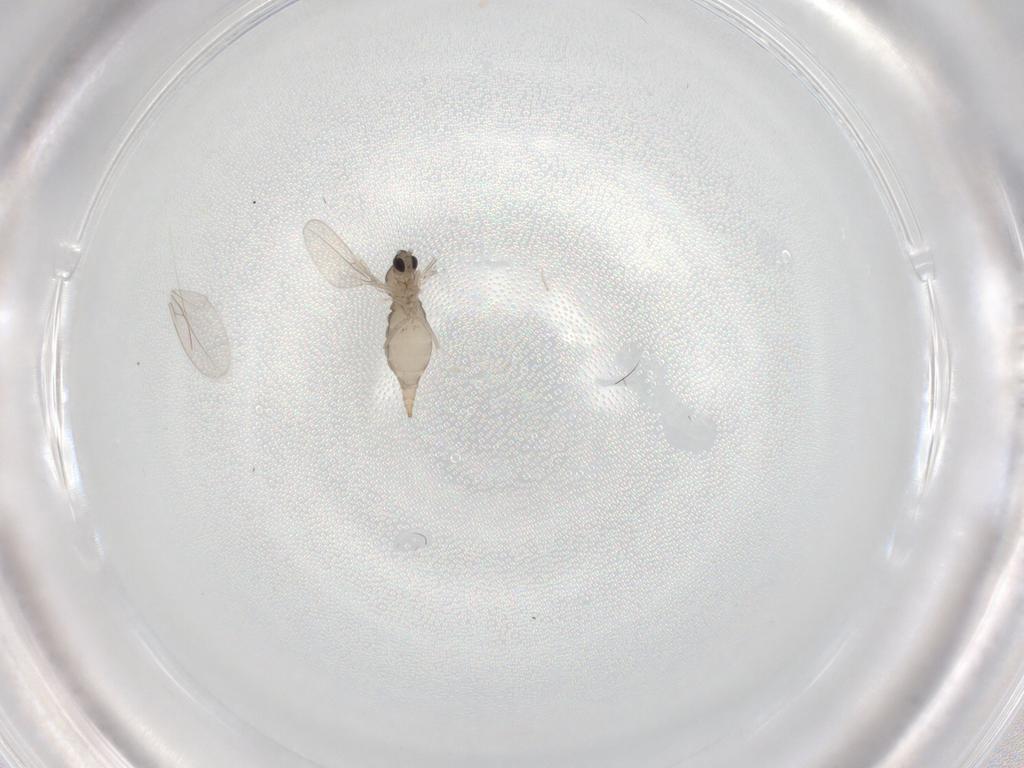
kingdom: Animalia
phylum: Arthropoda
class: Insecta
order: Diptera
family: Cecidomyiidae
